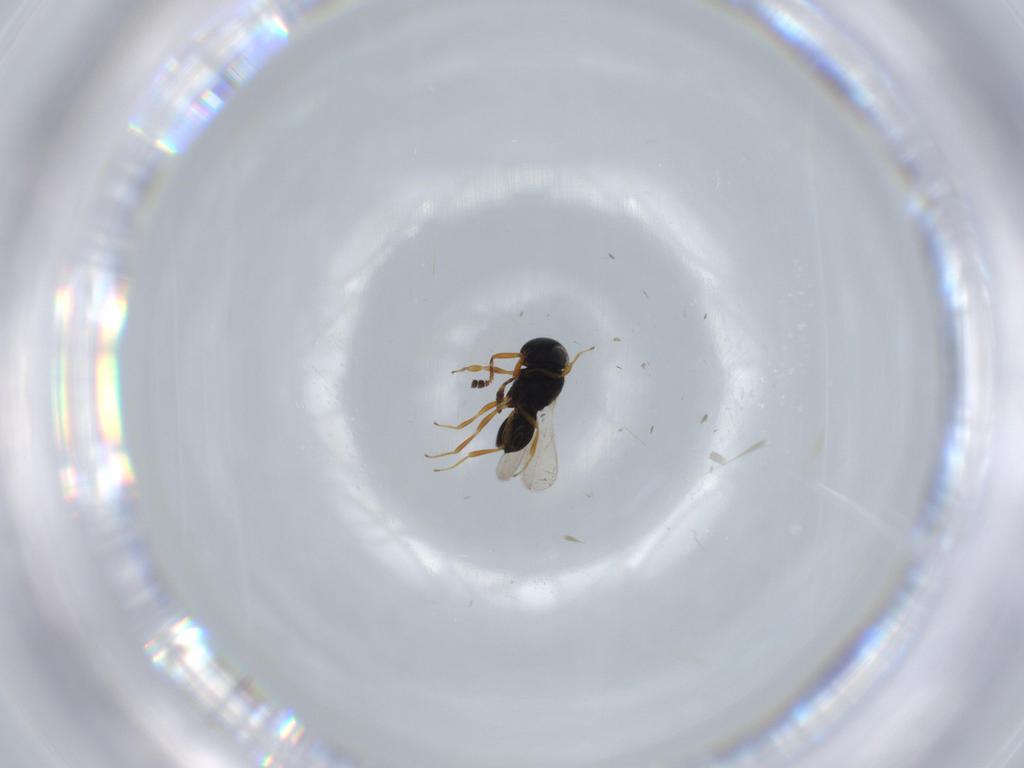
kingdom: Animalia
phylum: Arthropoda
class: Insecta
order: Hymenoptera
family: Scelionidae
